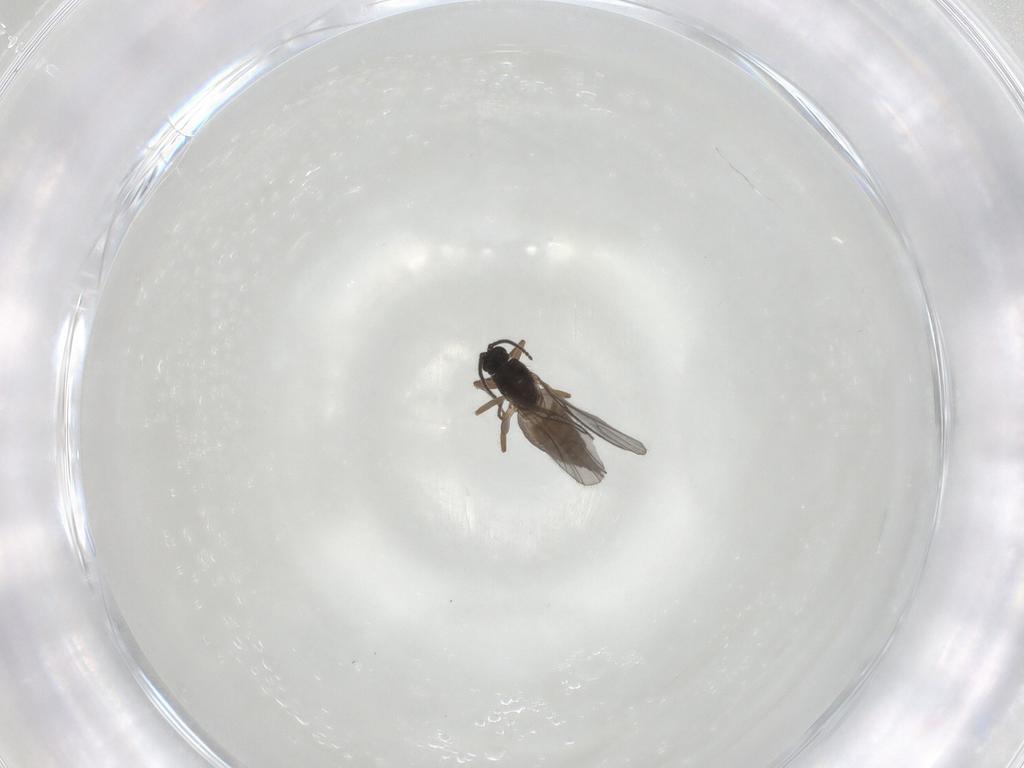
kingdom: Animalia
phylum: Arthropoda
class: Insecta
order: Diptera
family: Sciaridae
